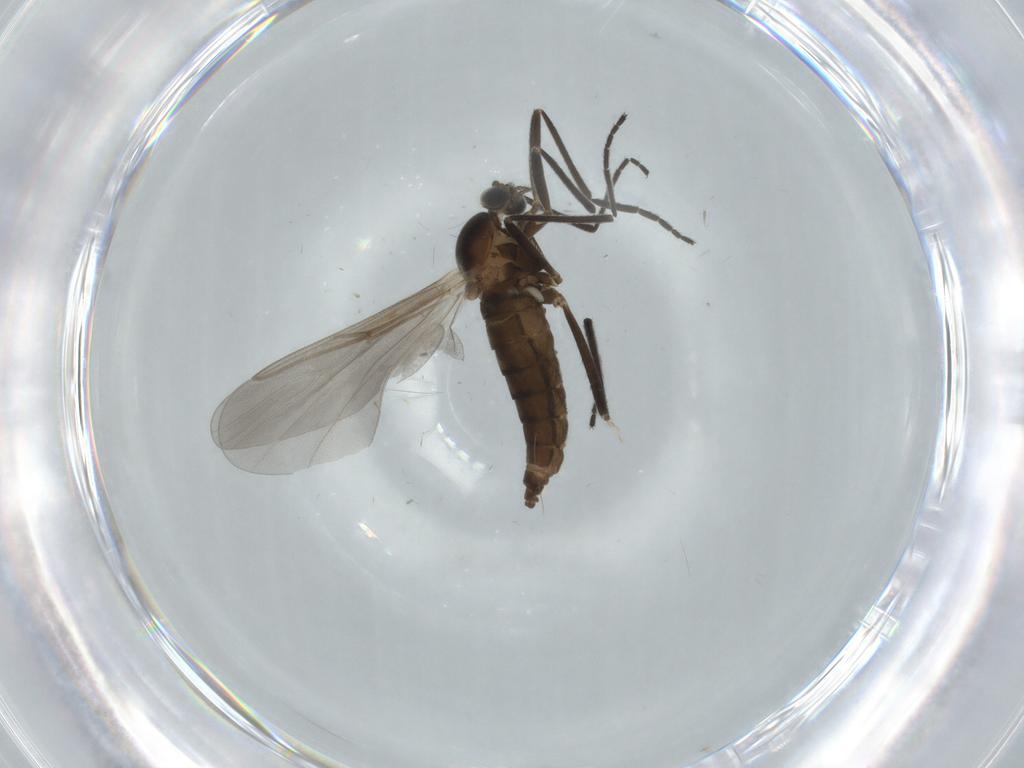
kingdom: Animalia
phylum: Arthropoda
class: Insecta
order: Diptera
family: Cecidomyiidae
